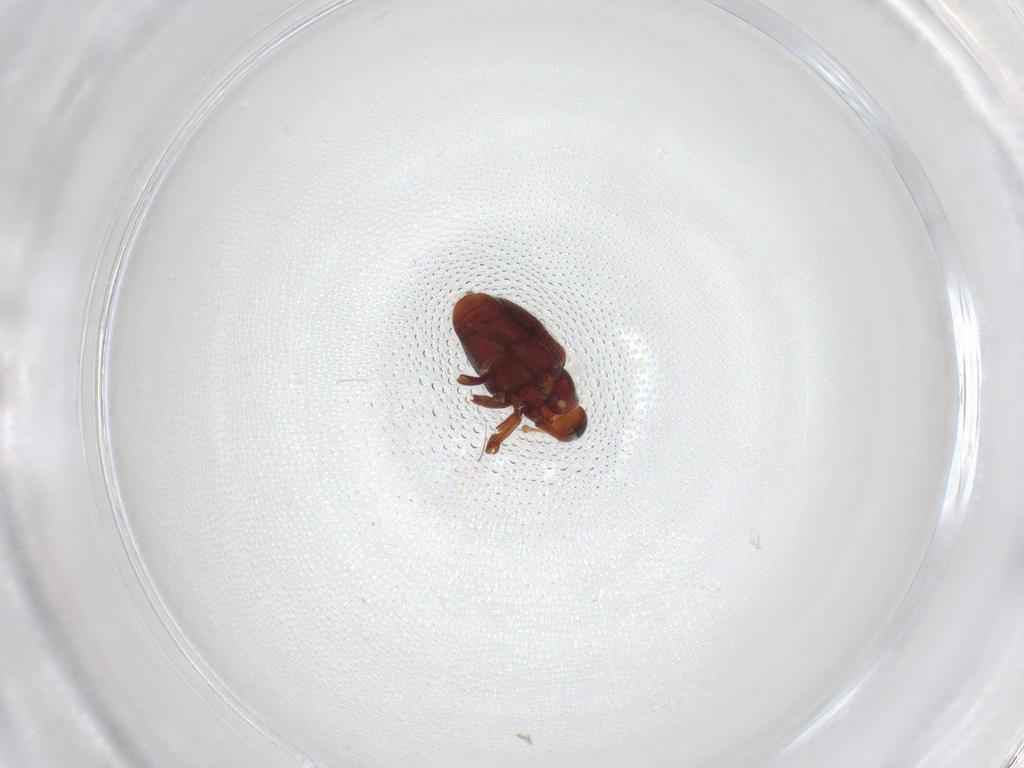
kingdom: Animalia
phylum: Arthropoda
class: Insecta
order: Coleoptera
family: Curculionidae
